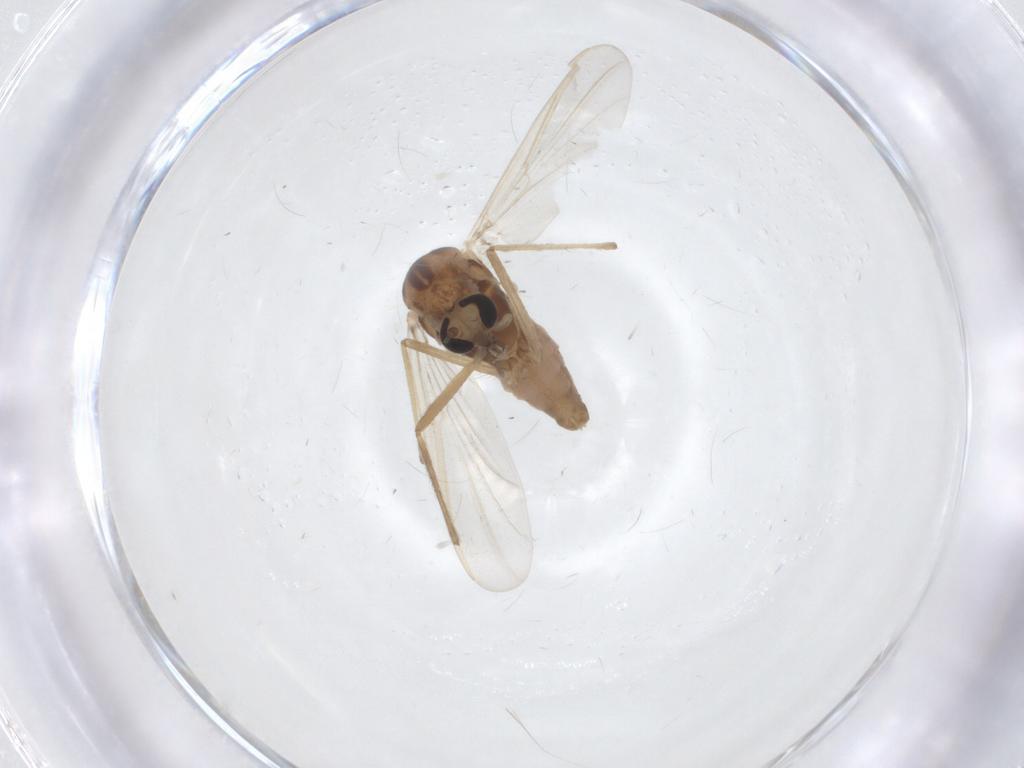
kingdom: Animalia
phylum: Arthropoda
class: Insecta
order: Diptera
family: Chironomidae
